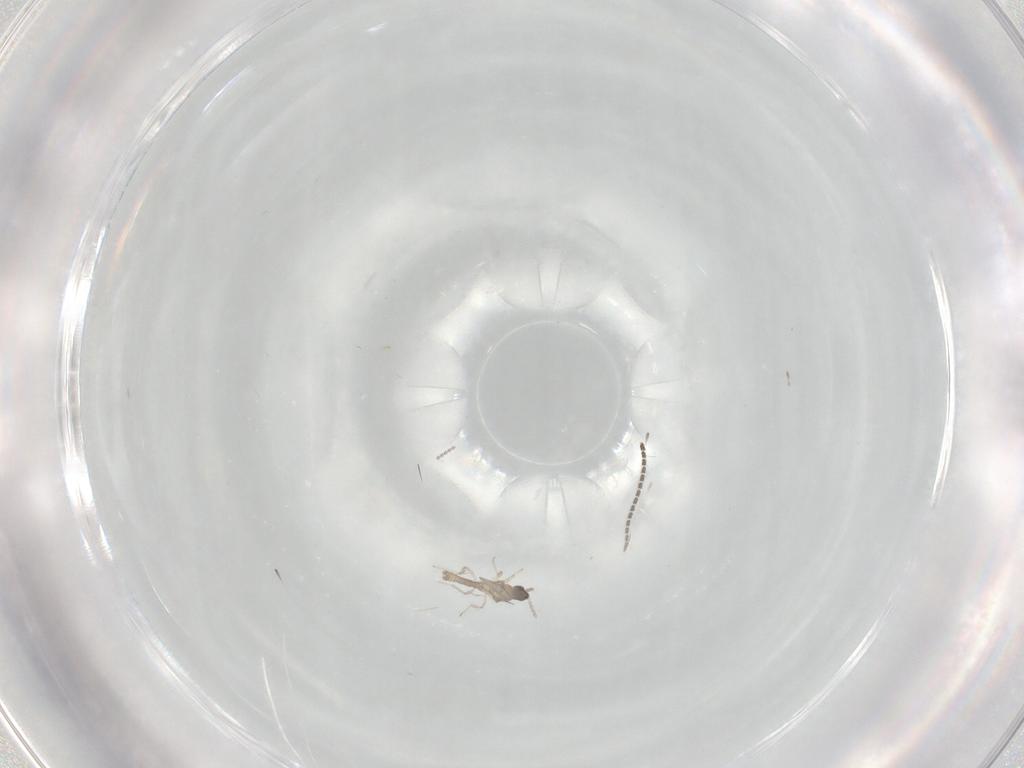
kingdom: Animalia
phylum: Arthropoda
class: Insecta
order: Diptera
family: Cecidomyiidae
